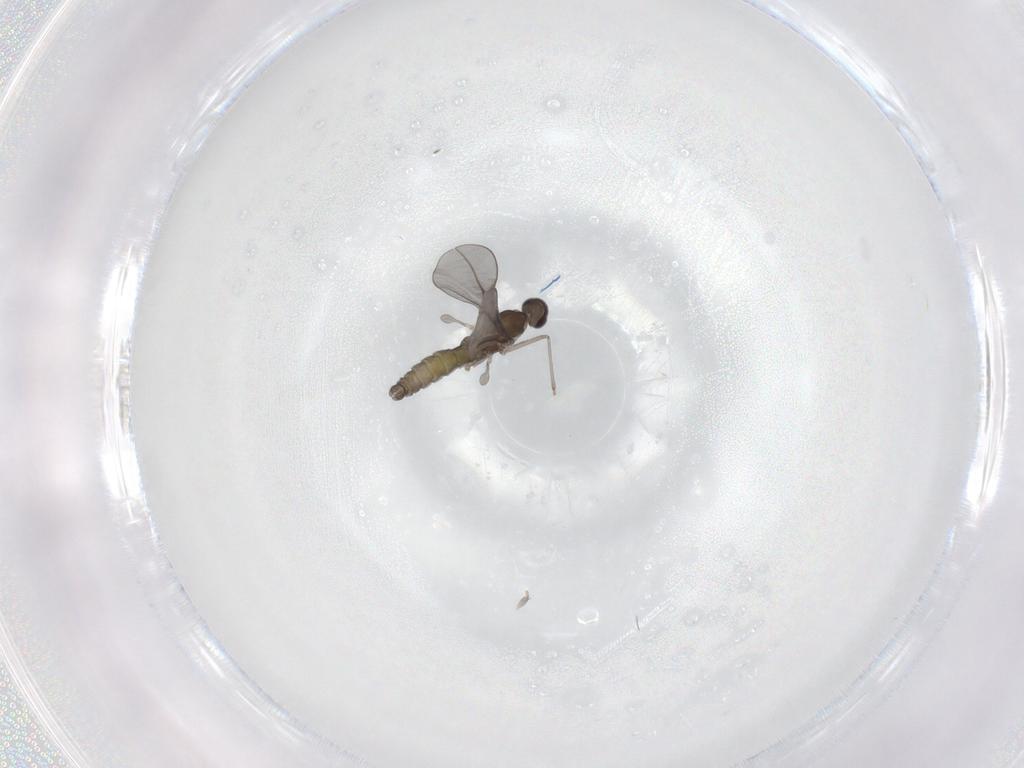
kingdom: Animalia
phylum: Arthropoda
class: Insecta
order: Diptera
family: Cecidomyiidae
